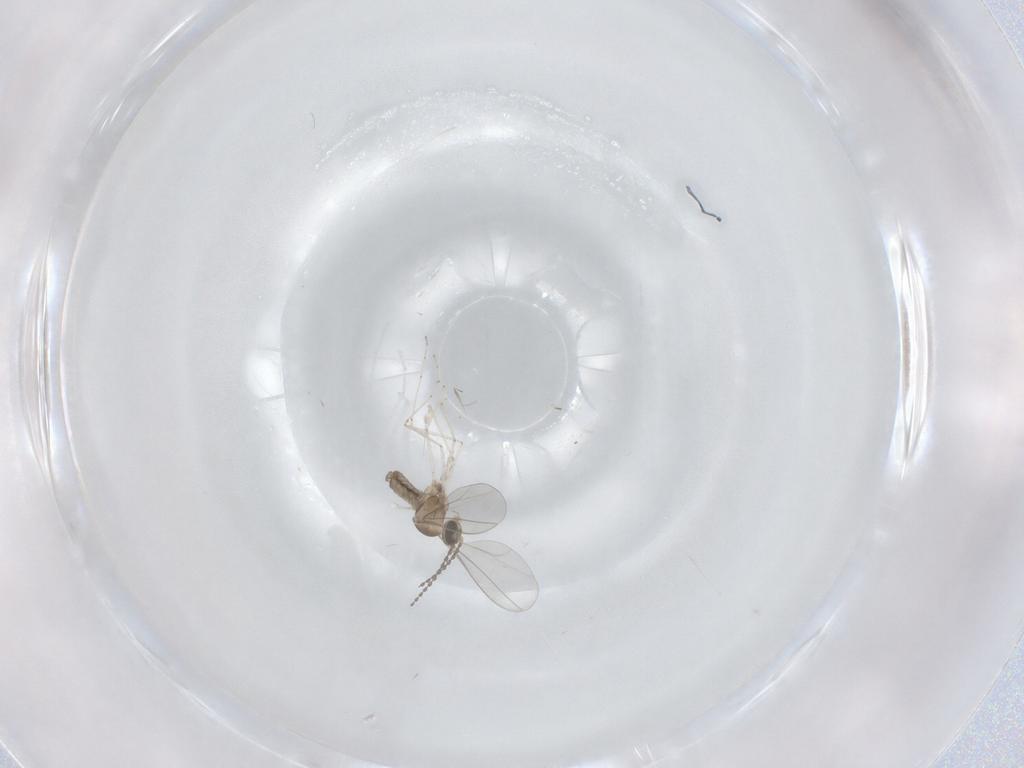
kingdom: Animalia
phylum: Arthropoda
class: Insecta
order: Diptera
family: Cecidomyiidae
